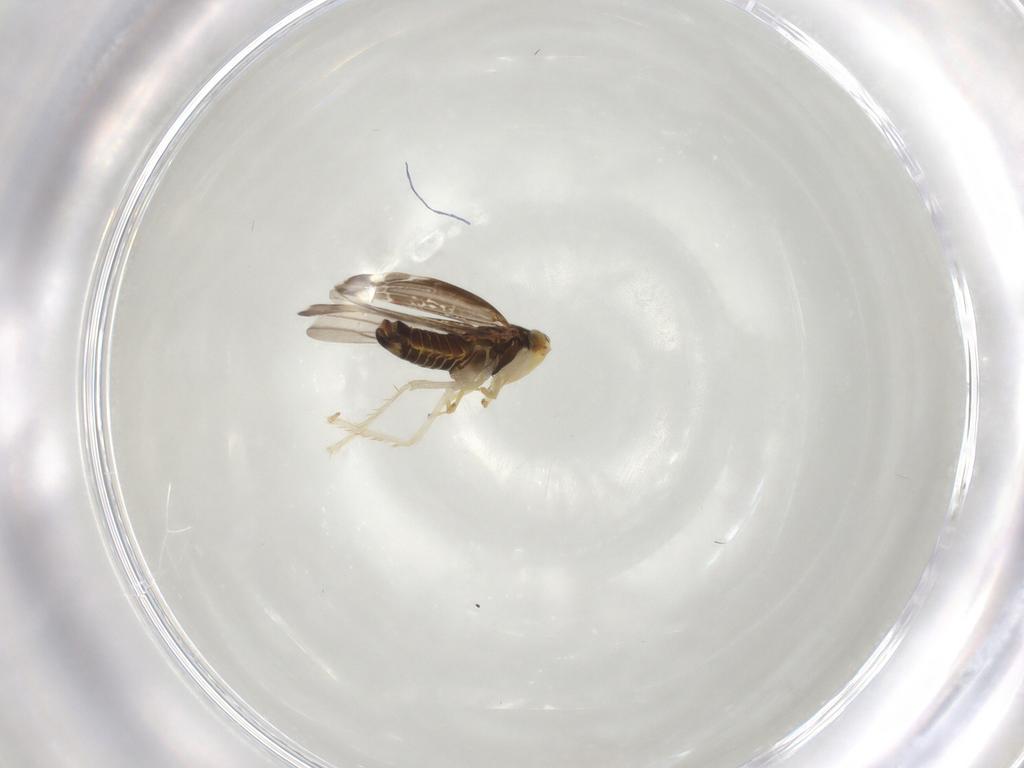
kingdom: Animalia
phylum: Arthropoda
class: Insecta
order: Hemiptera
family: Cicadellidae
